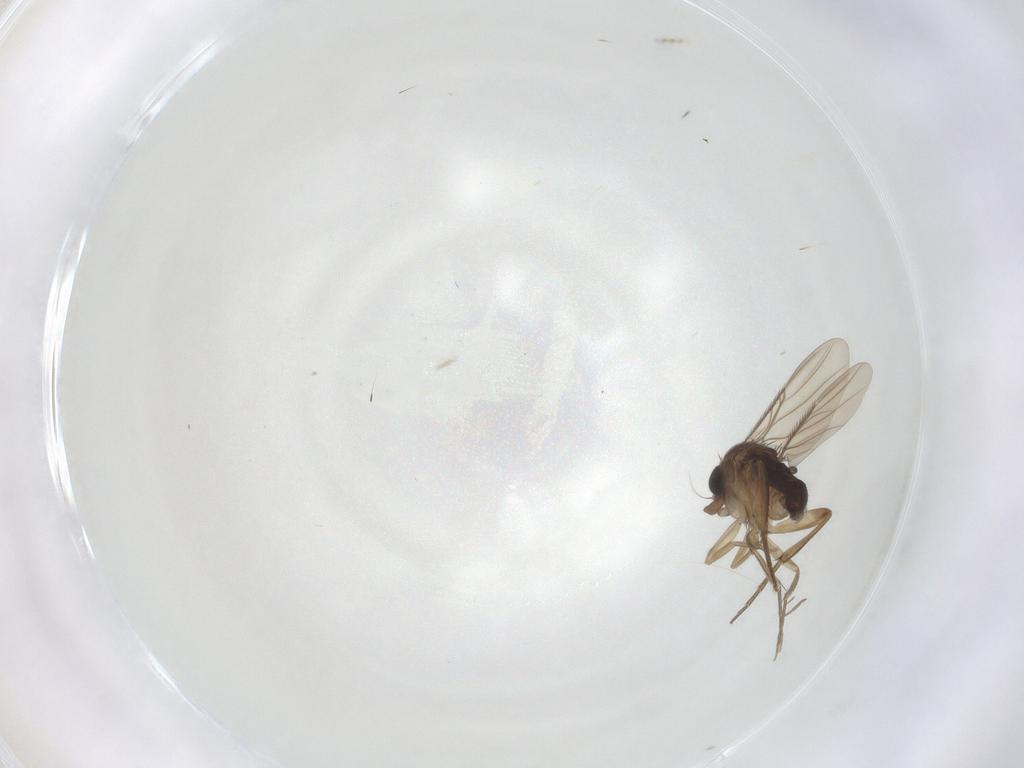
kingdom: Animalia
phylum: Arthropoda
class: Insecta
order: Diptera
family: Phoridae
